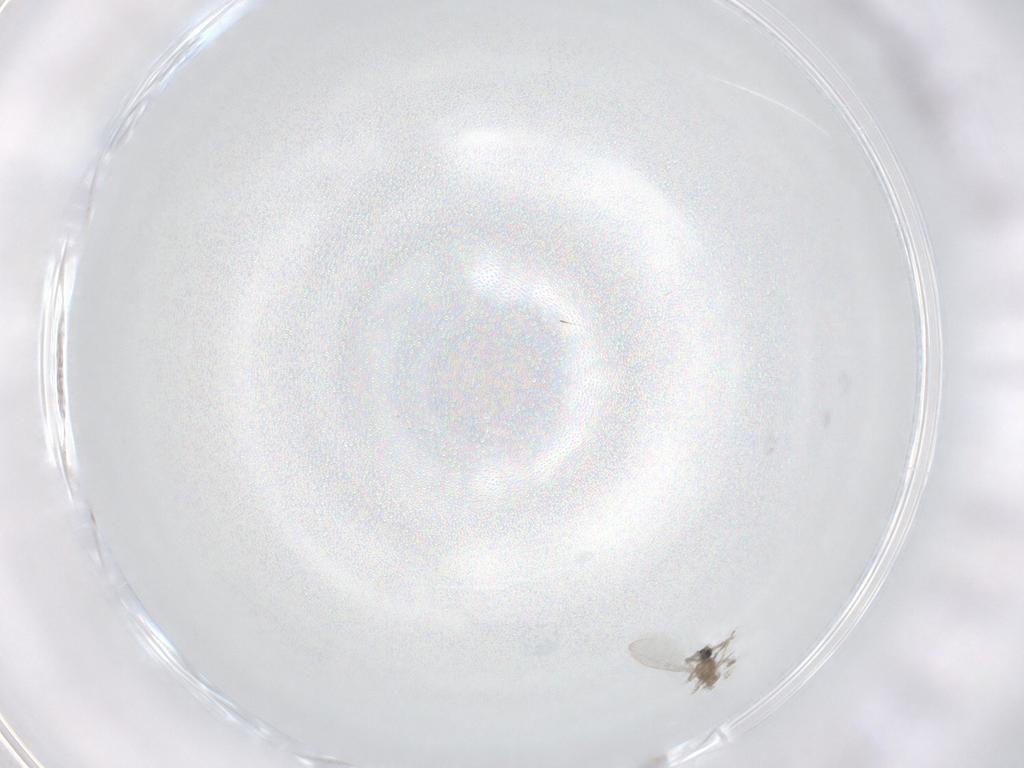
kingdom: Animalia
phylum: Arthropoda
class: Insecta
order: Diptera
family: Cecidomyiidae
